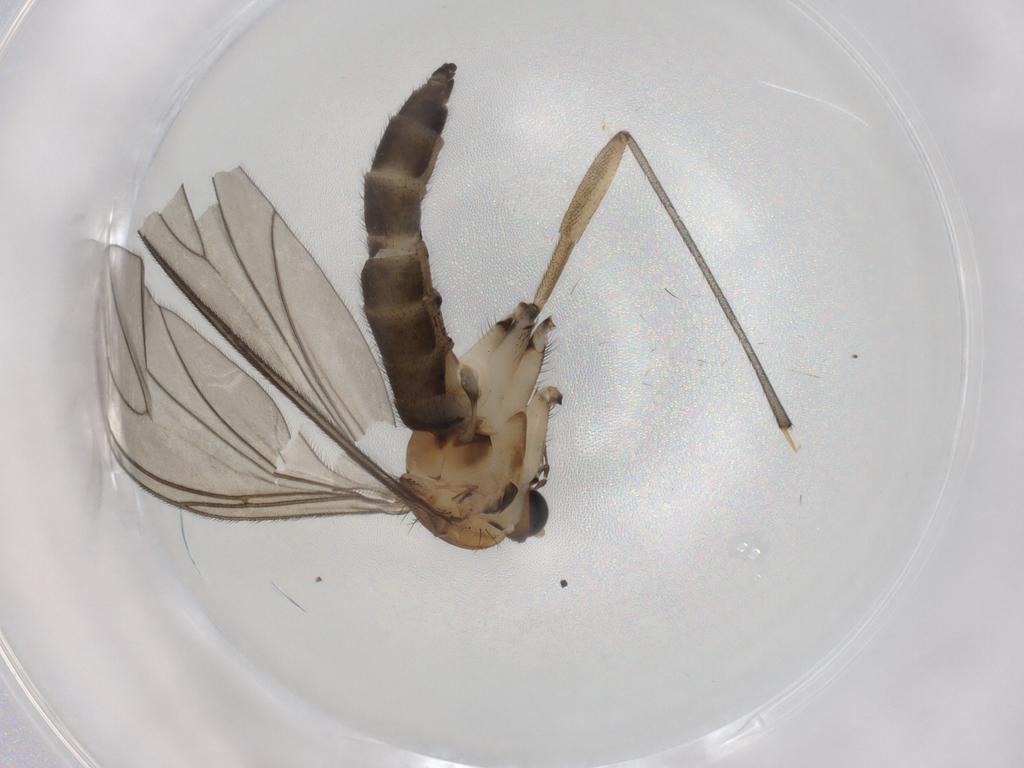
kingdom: Animalia
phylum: Arthropoda
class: Insecta
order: Diptera
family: Sciaridae
